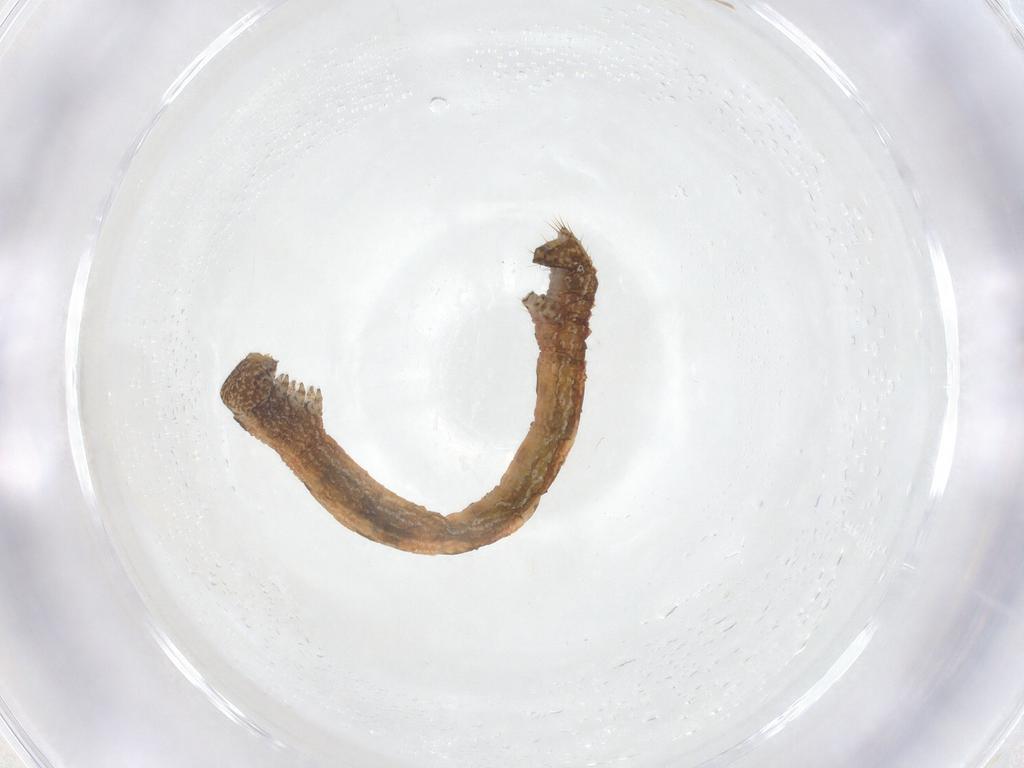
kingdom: Animalia
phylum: Arthropoda
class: Insecta
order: Lepidoptera
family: Geometridae
